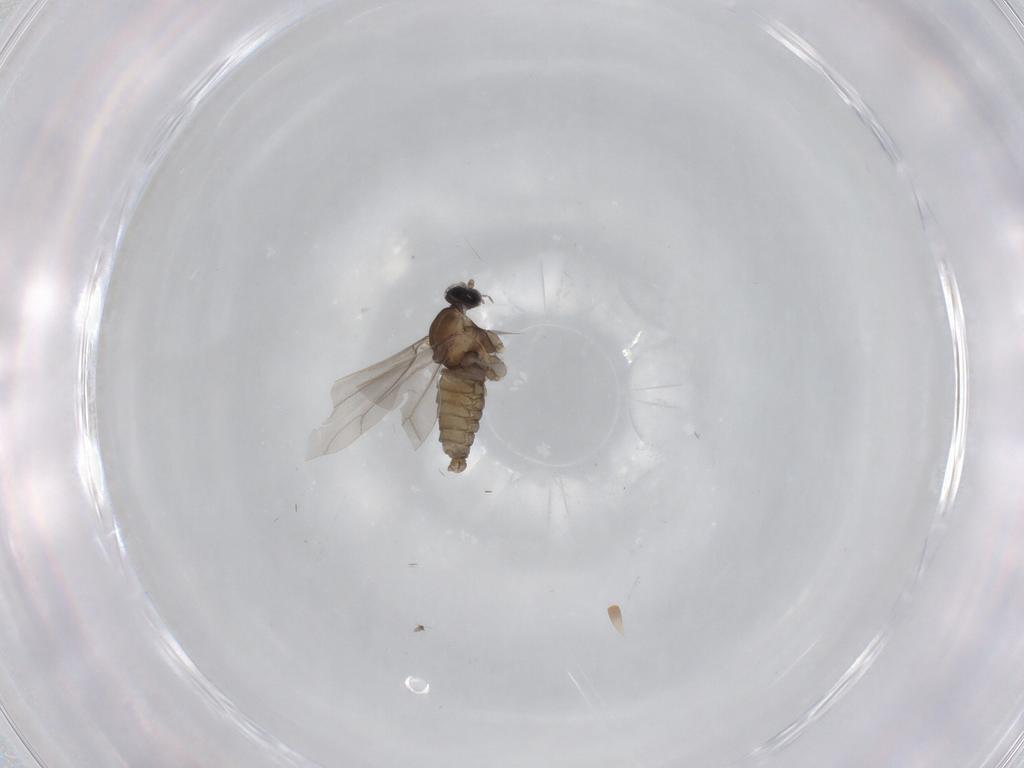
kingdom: Animalia
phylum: Arthropoda
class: Insecta
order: Diptera
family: Cecidomyiidae
